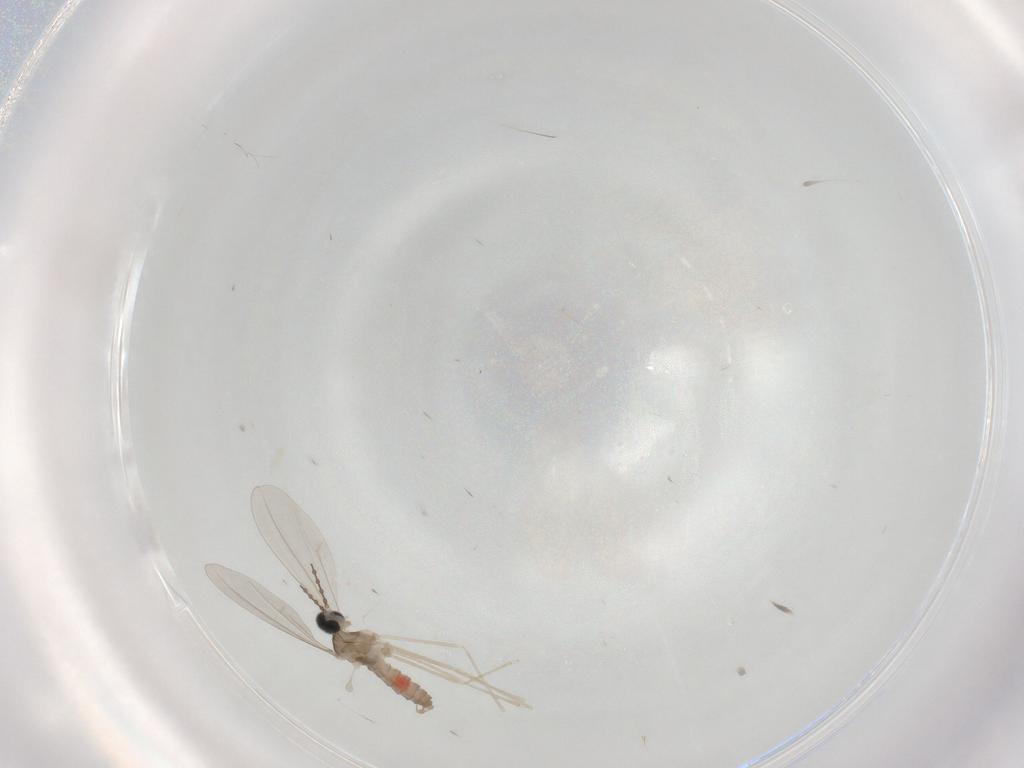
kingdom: Animalia
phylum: Arthropoda
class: Insecta
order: Diptera
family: Cecidomyiidae
